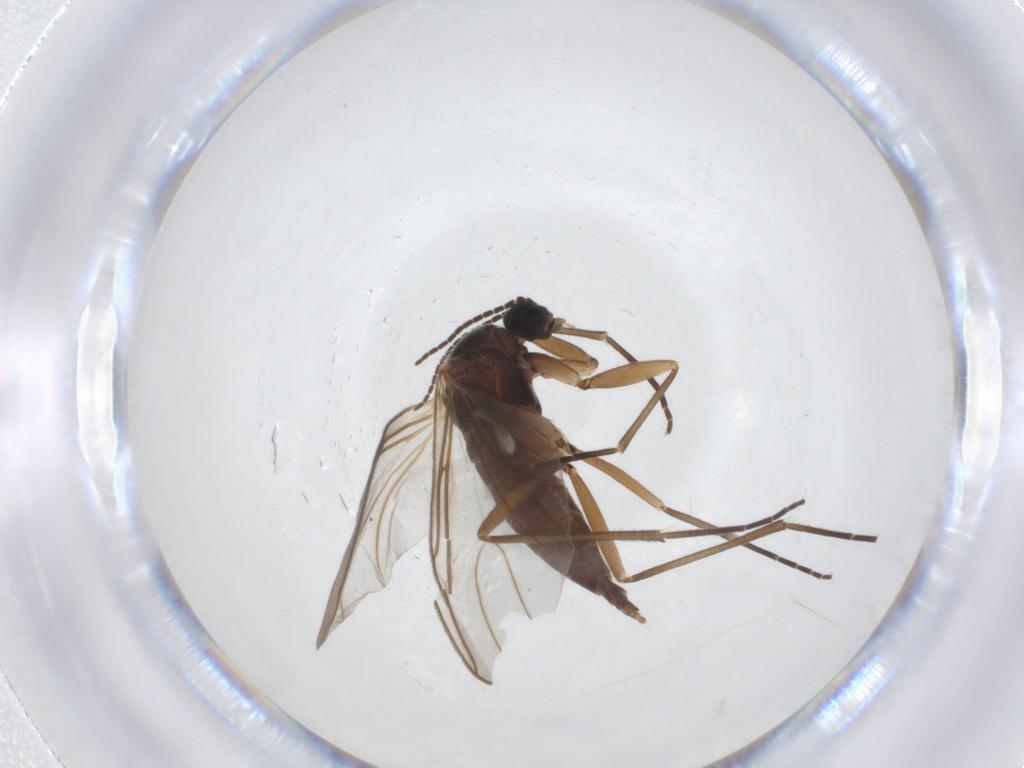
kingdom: Animalia
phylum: Arthropoda
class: Insecta
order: Diptera
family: Sciaridae
